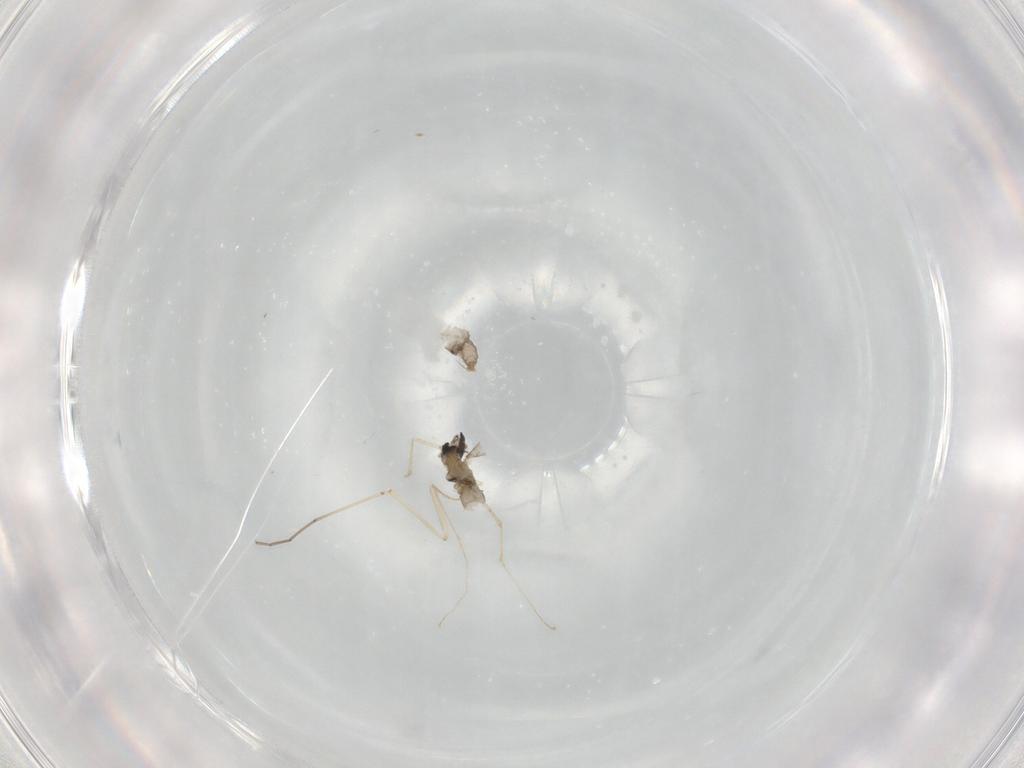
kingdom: Animalia
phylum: Arthropoda
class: Insecta
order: Diptera
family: Cecidomyiidae
